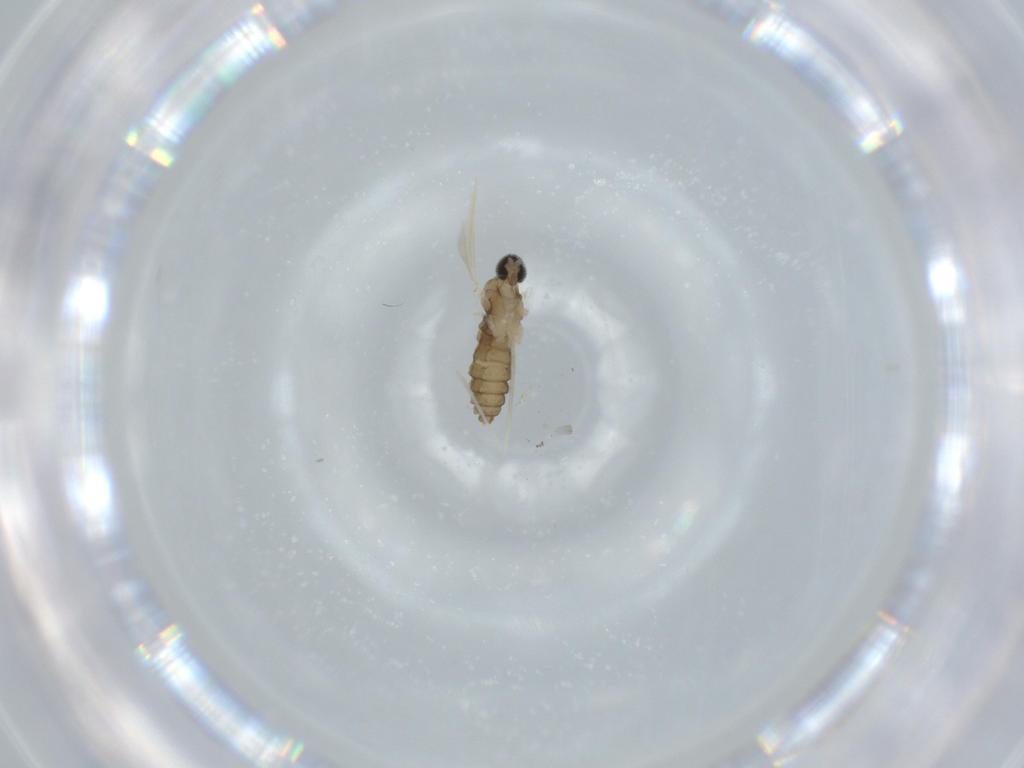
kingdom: Animalia
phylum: Arthropoda
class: Insecta
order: Diptera
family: Cecidomyiidae
